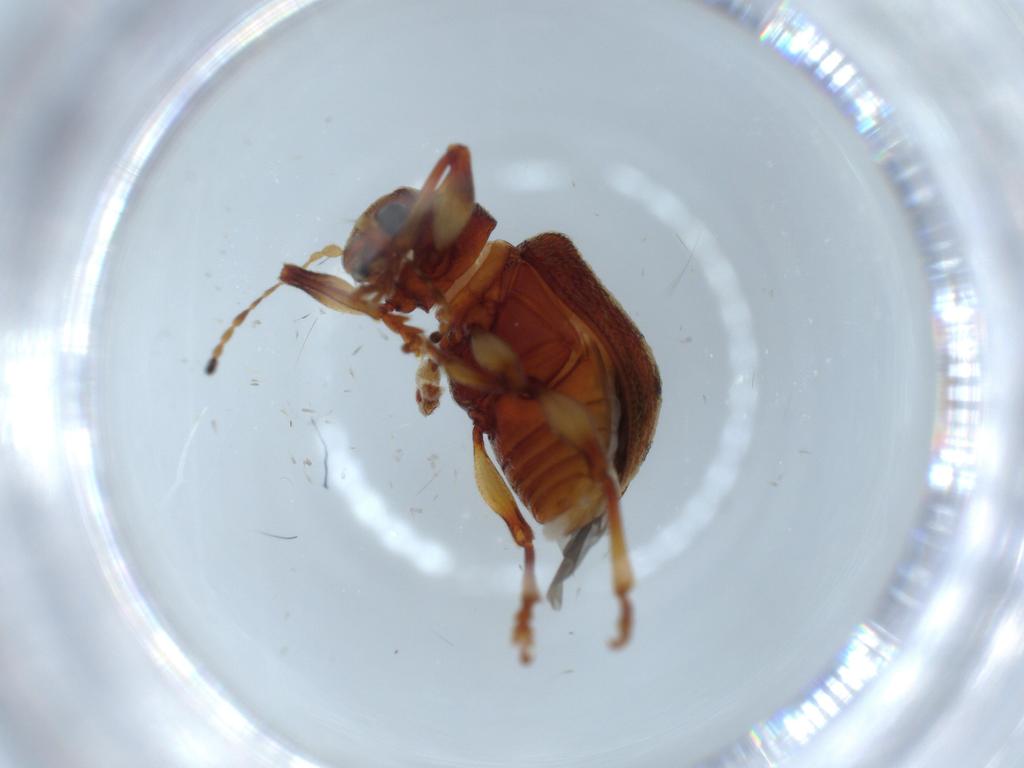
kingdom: Animalia
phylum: Arthropoda
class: Insecta
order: Coleoptera
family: Chrysomelidae
